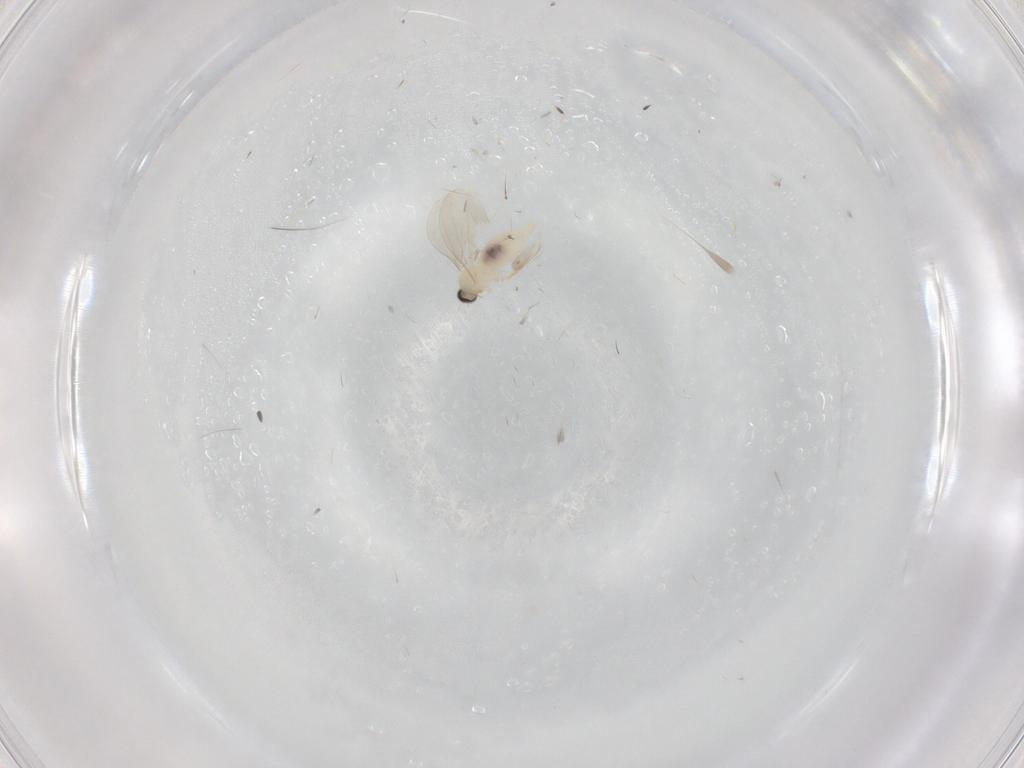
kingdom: Animalia
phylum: Arthropoda
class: Insecta
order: Diptera
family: Cecidomyiidae
